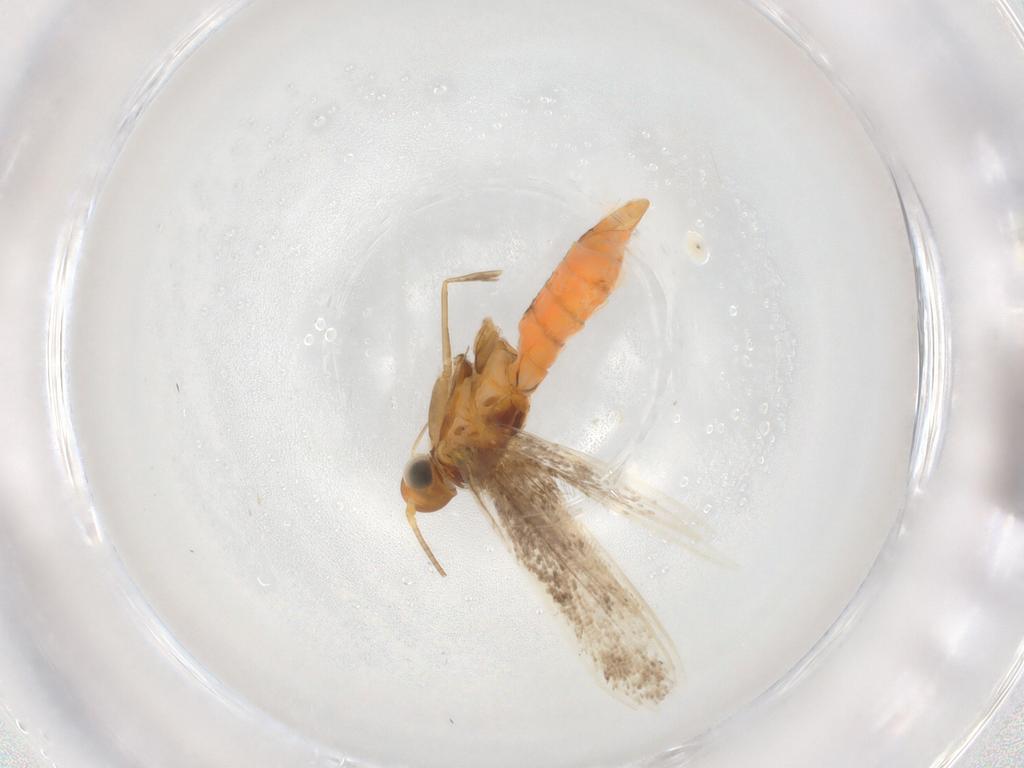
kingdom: Animalia
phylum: Arthropoda
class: Insecta
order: Lepidoptera
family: Gracillariidae
